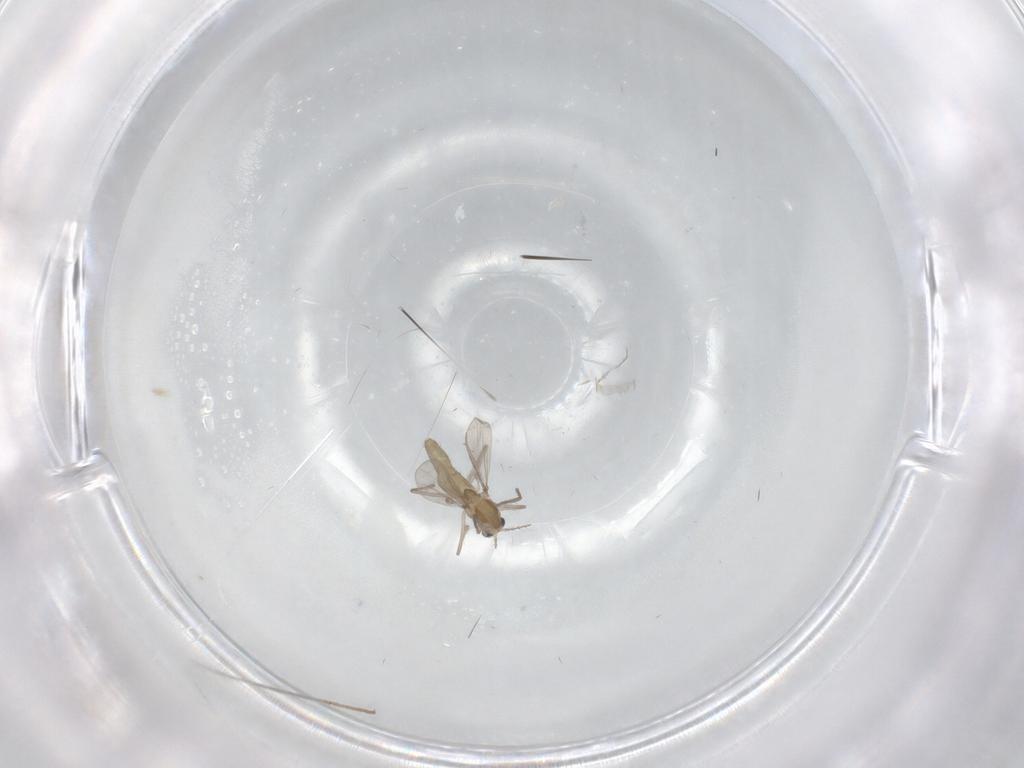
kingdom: Animalia
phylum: Arthropoda
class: Insecta
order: Diptera
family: Chironomidae
